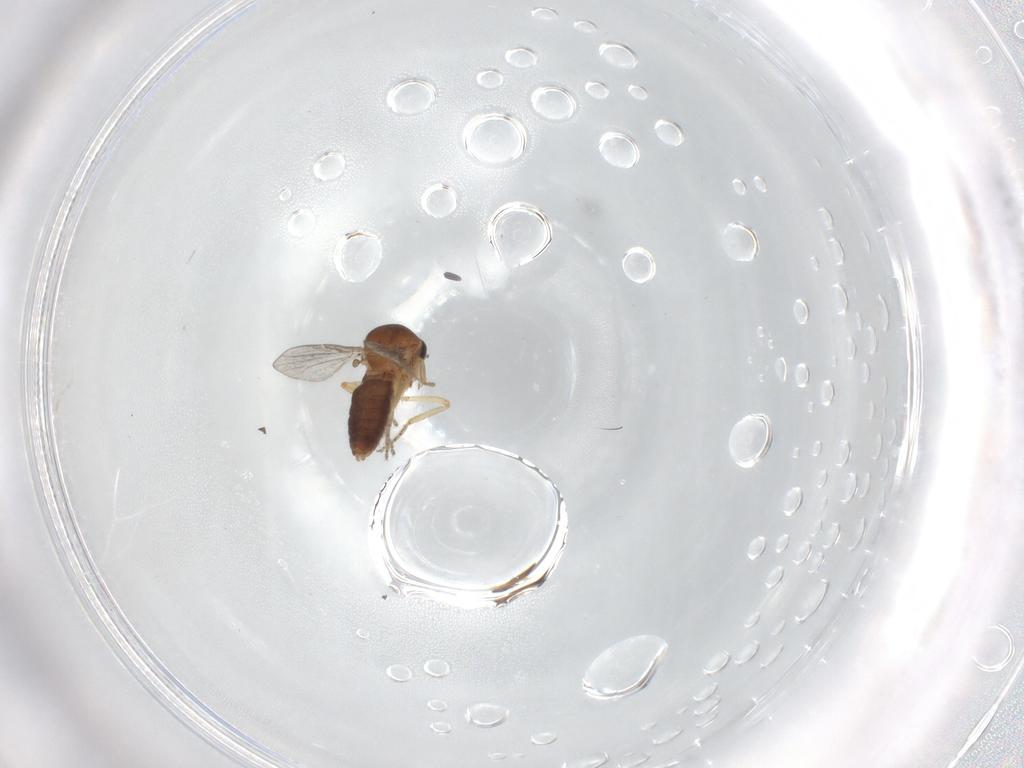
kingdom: Animalia
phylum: Arthropoda
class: Insecta
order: Diptera
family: Ceratopogonidae
